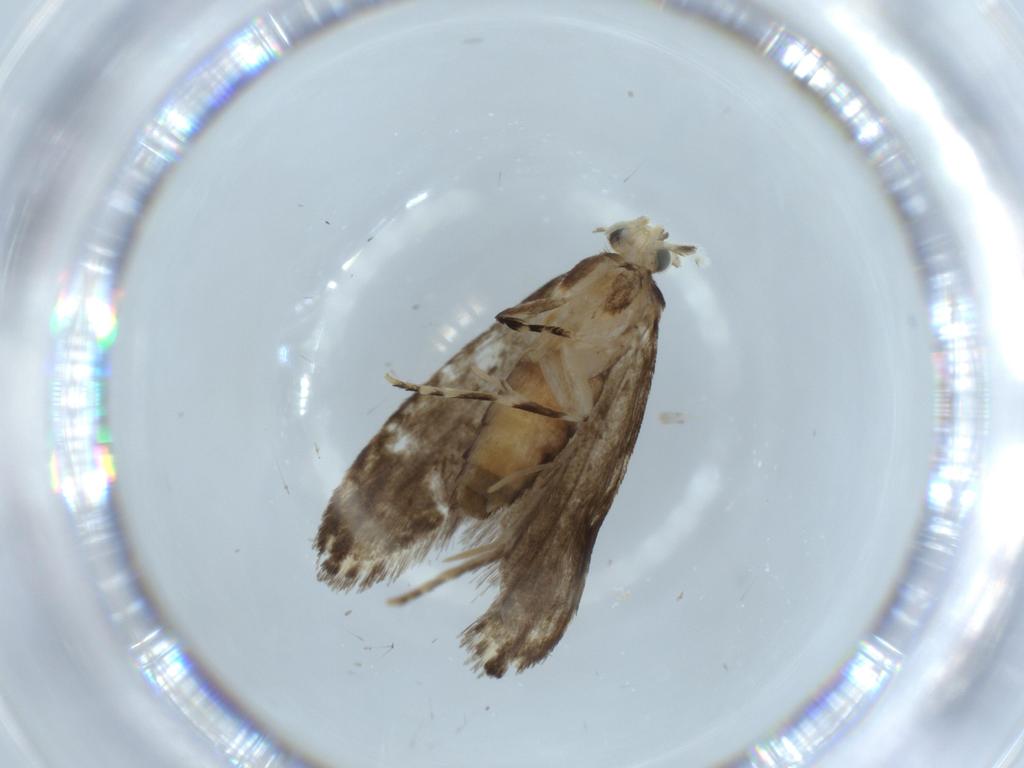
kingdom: Animalia
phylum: Arthropoda
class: Insecta
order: Lepidoptera
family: Tineidae
